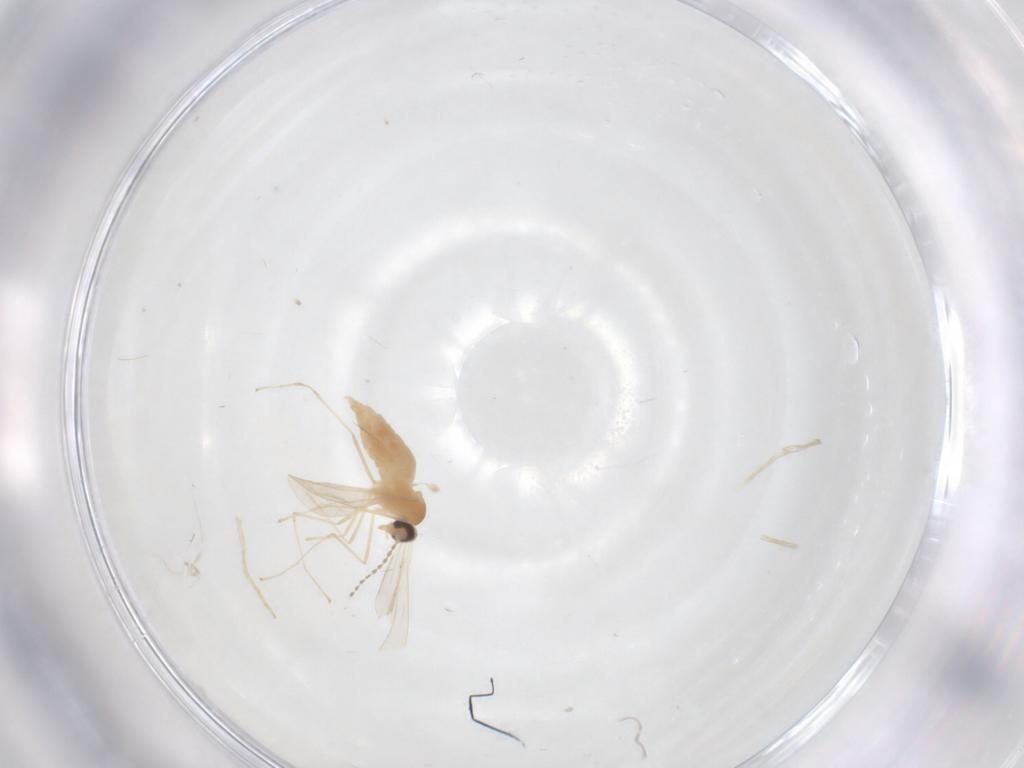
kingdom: Animalia
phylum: Arthropoda
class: Insecta
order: Diptera
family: Cecidomyiidae
